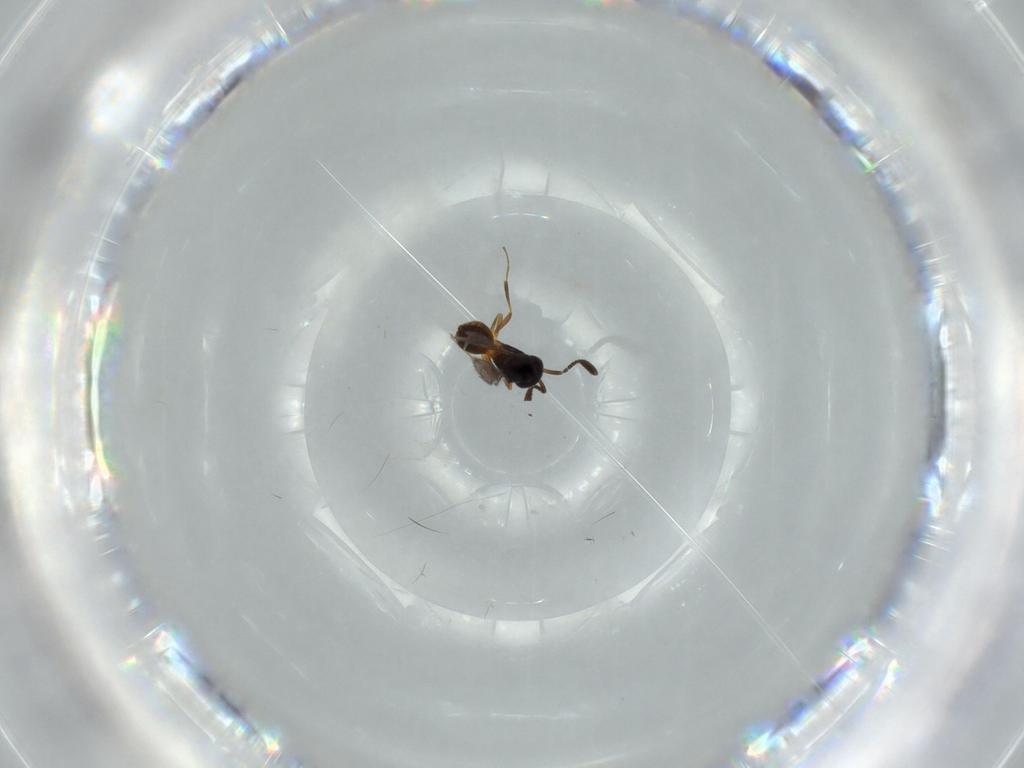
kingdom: Animalia
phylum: Arthropoda
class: Insecta
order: Hymenoptera
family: Scelionidae
